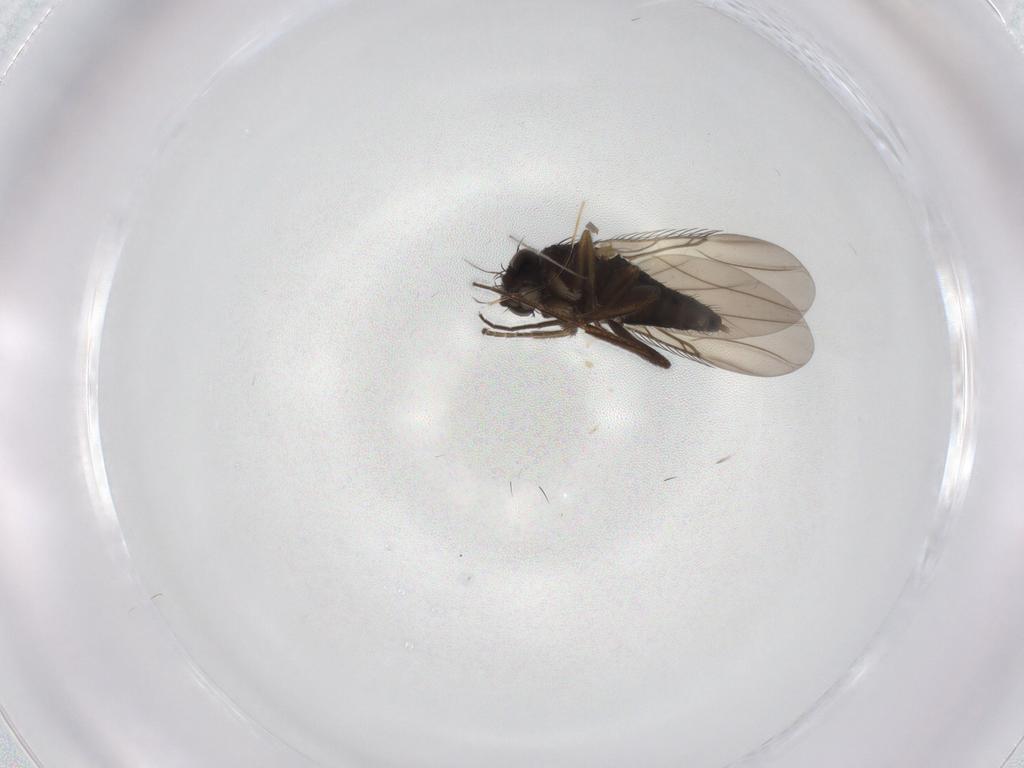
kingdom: Animalia
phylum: Arthropoda
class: Insecta
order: Diptera
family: Phoridae
